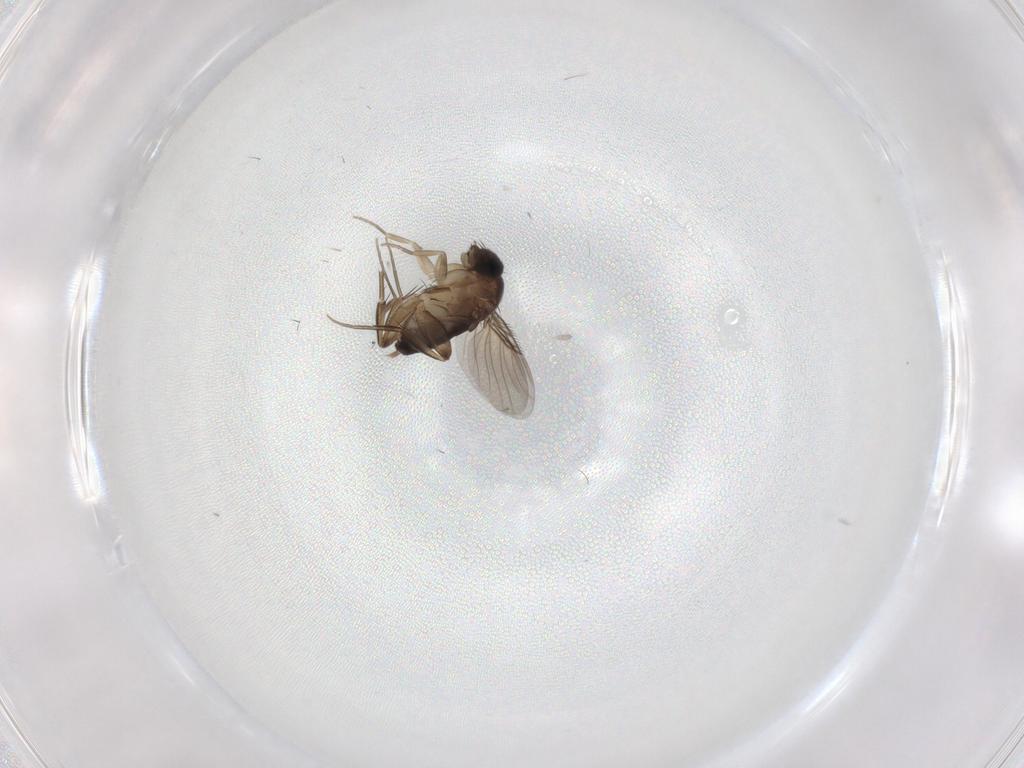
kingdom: Animalia
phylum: Arthropoda
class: Insecta
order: Diptera
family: Phoridae
